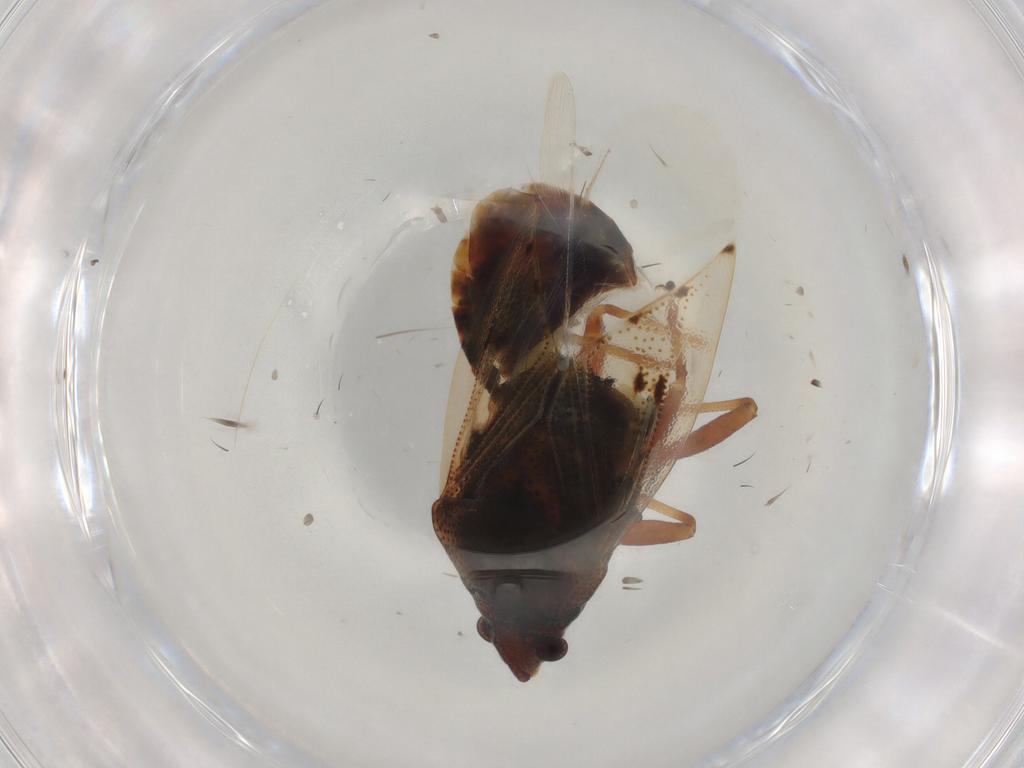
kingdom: Animalia
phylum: Arthropoda
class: Insecta
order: Hemiptera
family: Lygaeidae
